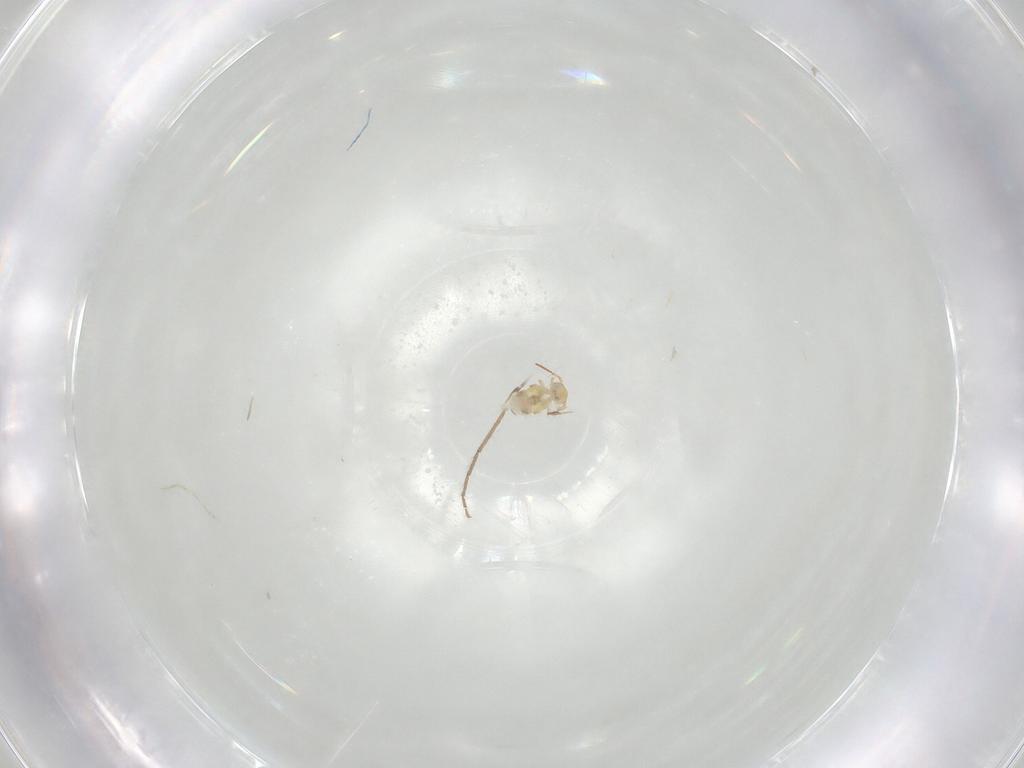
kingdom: Animalia
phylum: Arthropoda
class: Collembola
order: Symphypleona
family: Bourletiellidae
